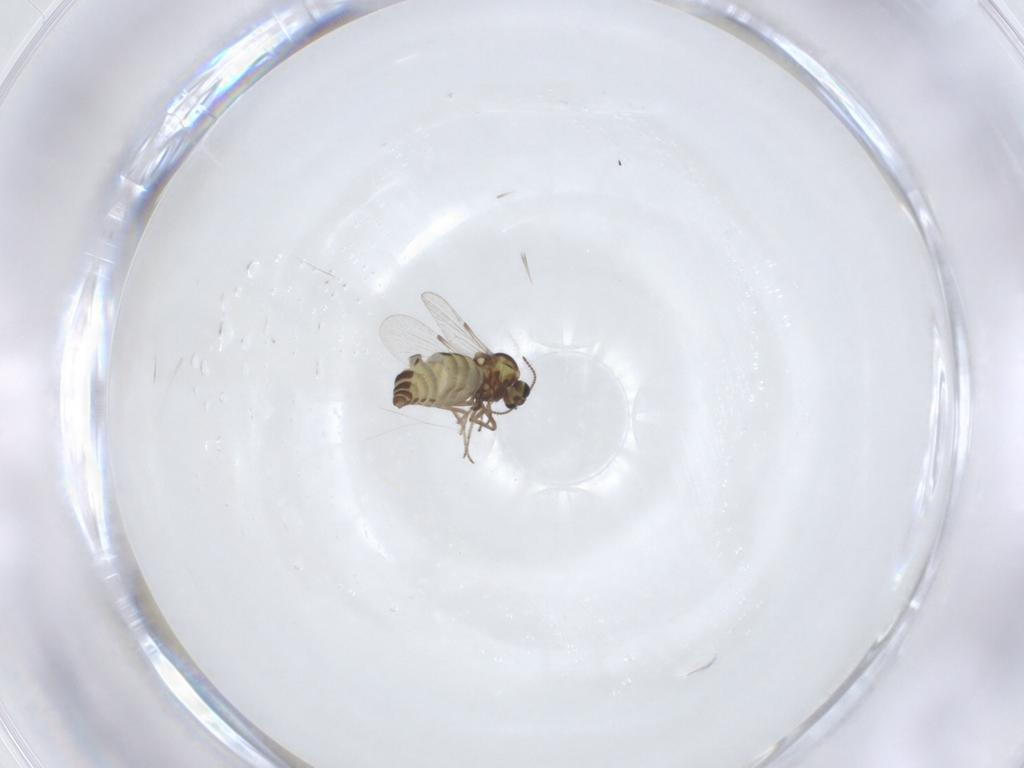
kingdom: Animalia
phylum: Arthropoda
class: Insecta
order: Diptera
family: Ceratopogonidae
